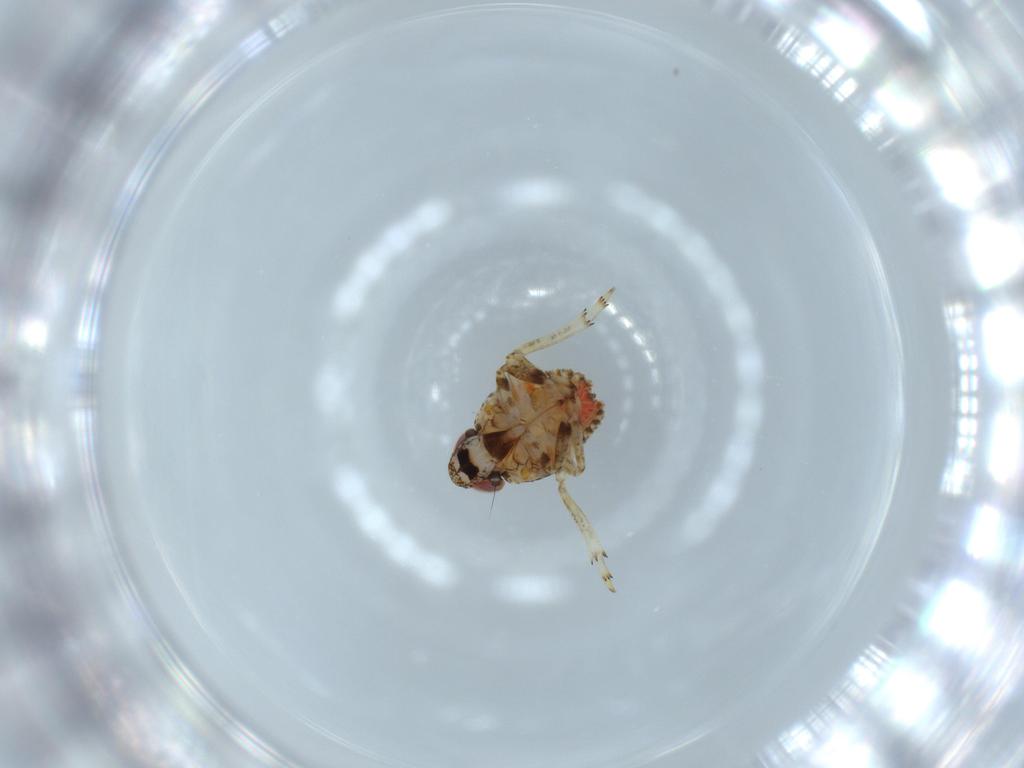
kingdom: Animalia
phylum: Arthropoda
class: Insecta
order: Hemiptera
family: Issidae
